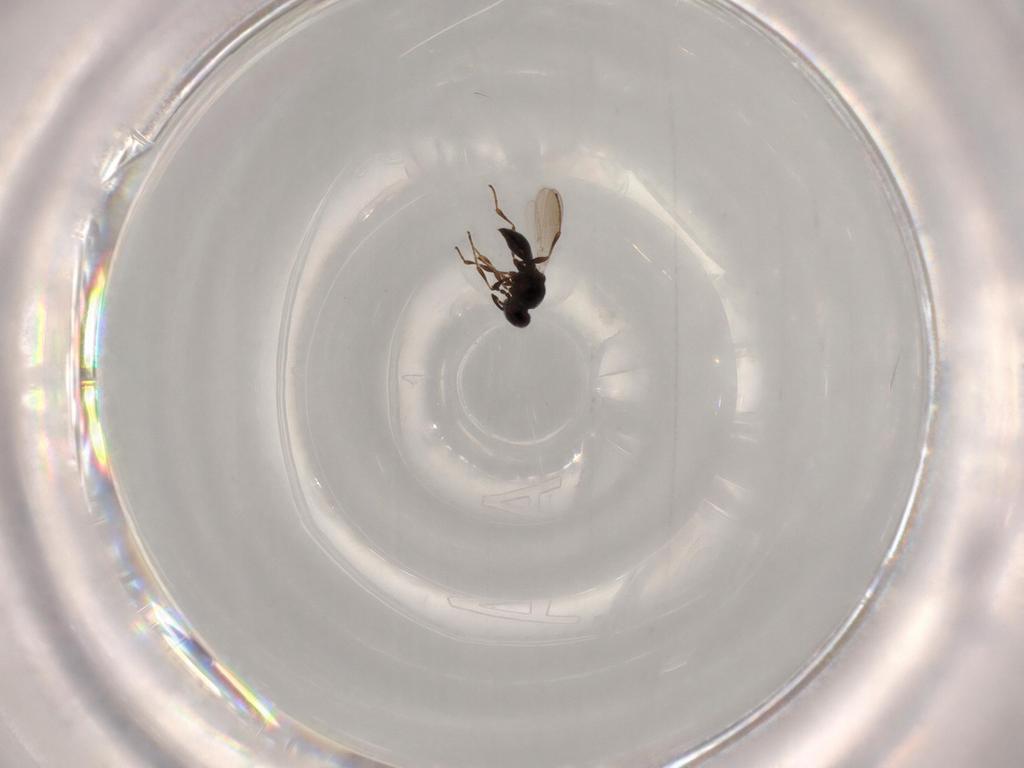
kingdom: Animalia
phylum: Arthropoda
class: Insecta
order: Hymenoptera
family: Platygastridae
